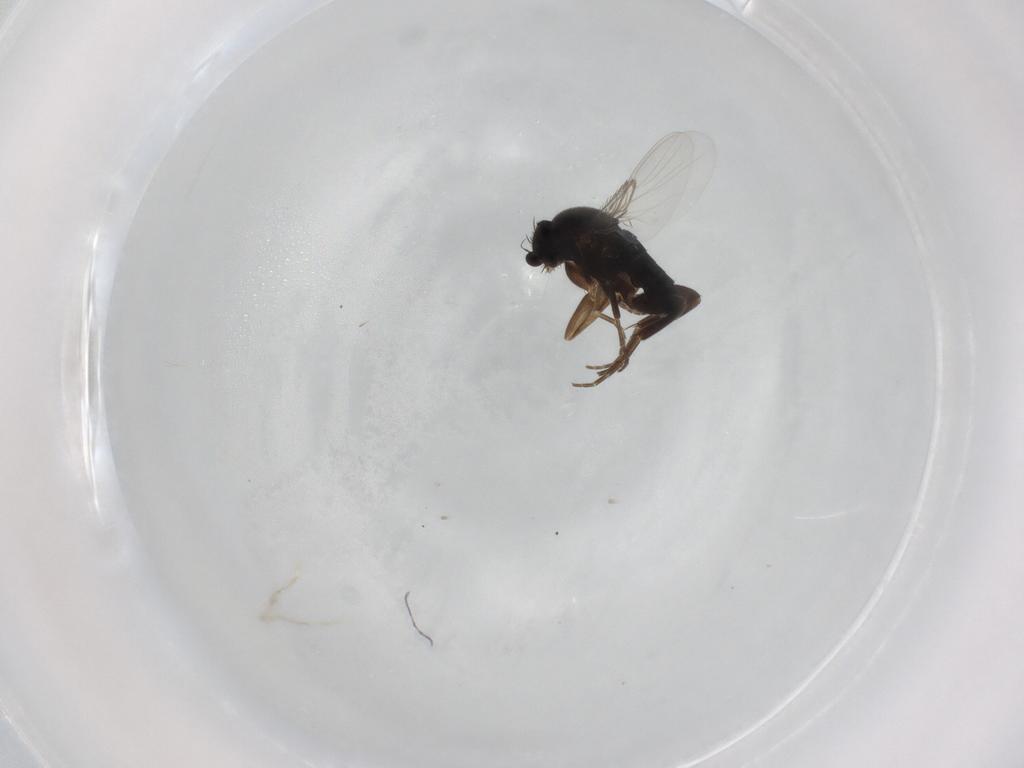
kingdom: Animalia
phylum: Arthropoda
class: Insecta
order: Diptera
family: Phoridae
